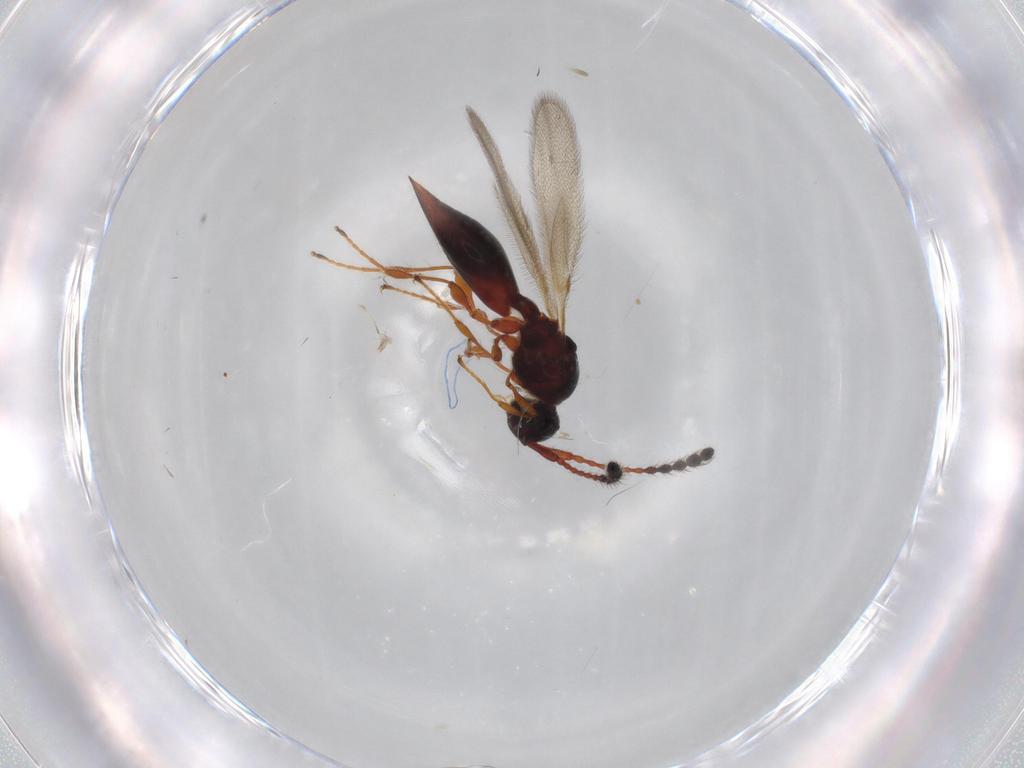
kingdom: Animalia
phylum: Arthropoda
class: Insecta
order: Hymenoptera
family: Diapriidae
